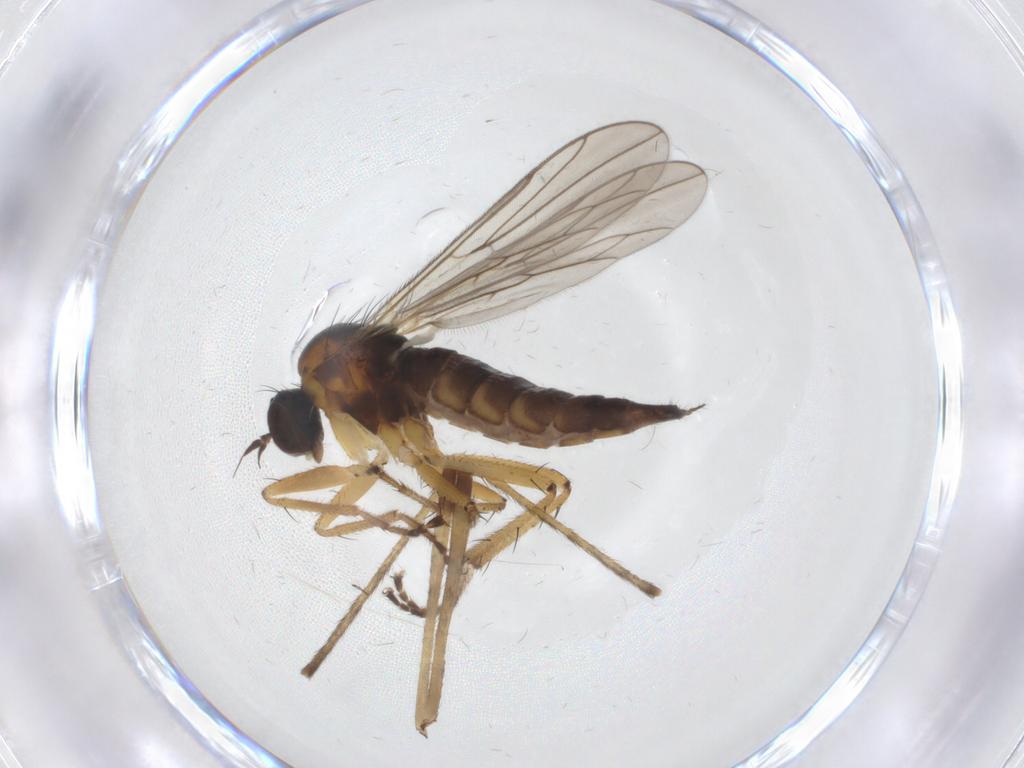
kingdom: Animalia
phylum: Arthropoda
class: Insecta
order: Diptera
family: Hybotidae
